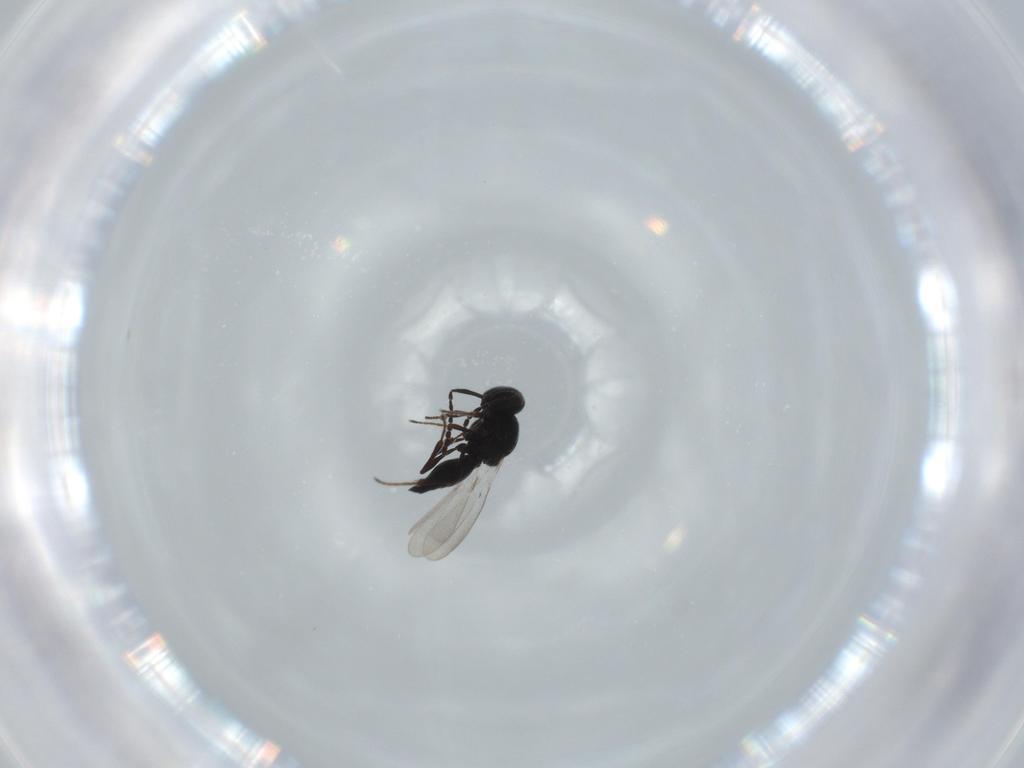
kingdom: Animalia
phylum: Arthropoda
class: Insecta
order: Hymenoptera
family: Platygastridae
